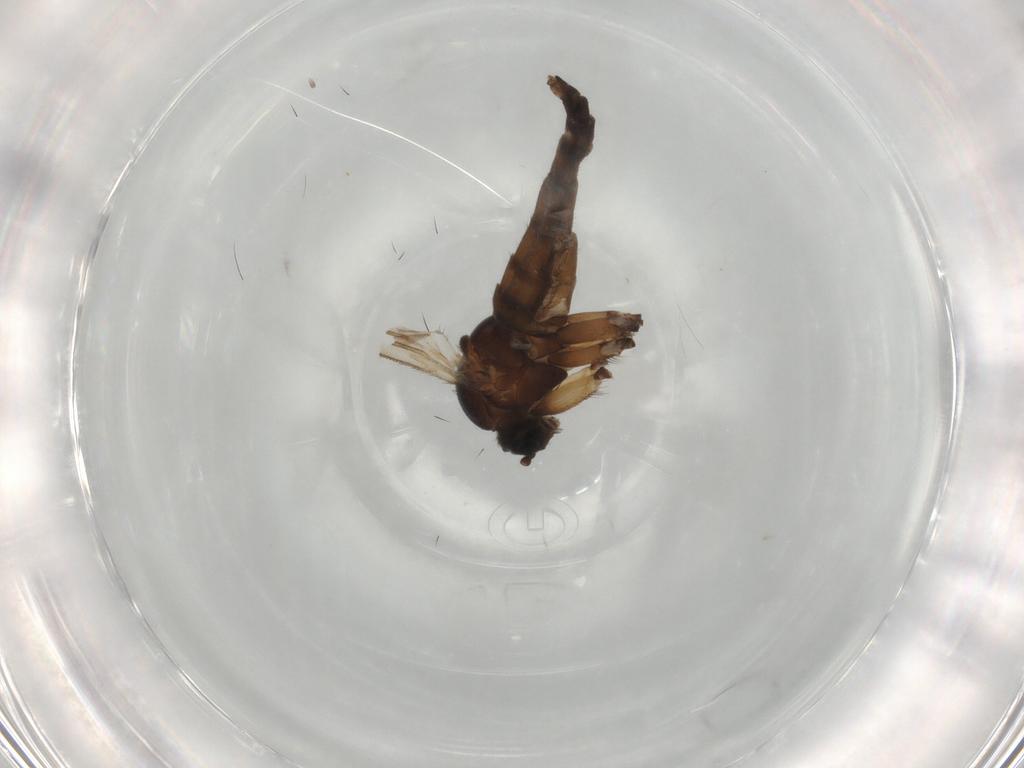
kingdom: Animalia
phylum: Arthropoda
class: Insecta
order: Diptera
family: Sciaridae
